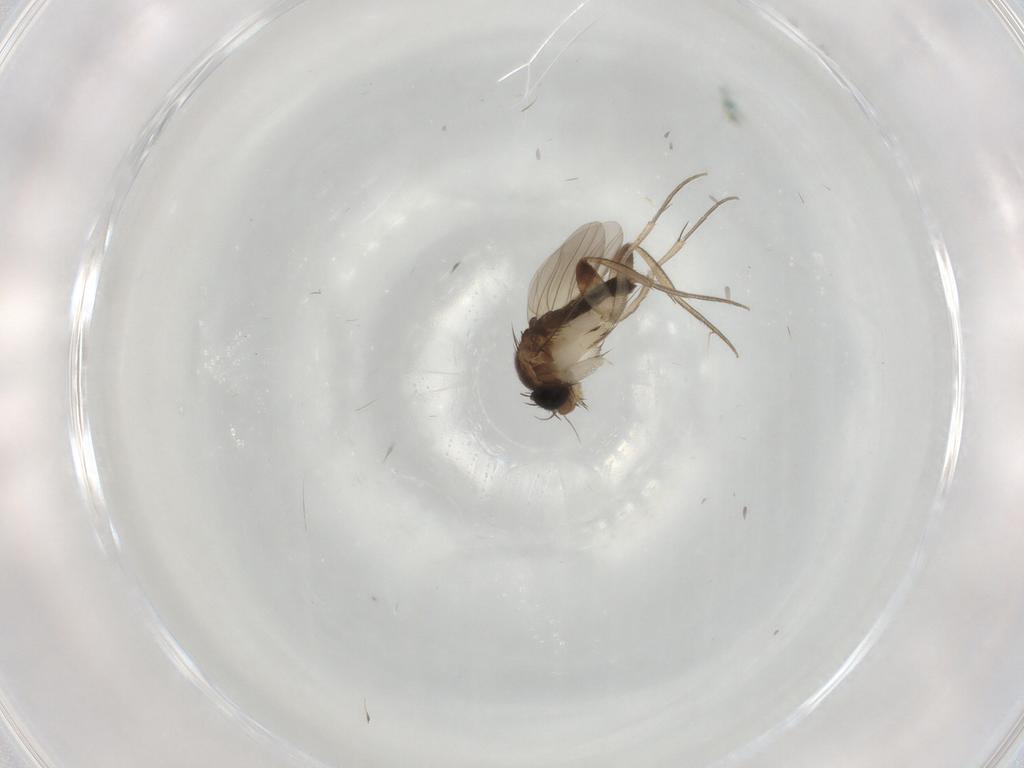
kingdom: Animalia
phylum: Arthropoda
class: Insecta
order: Diptera
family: Phoridae
